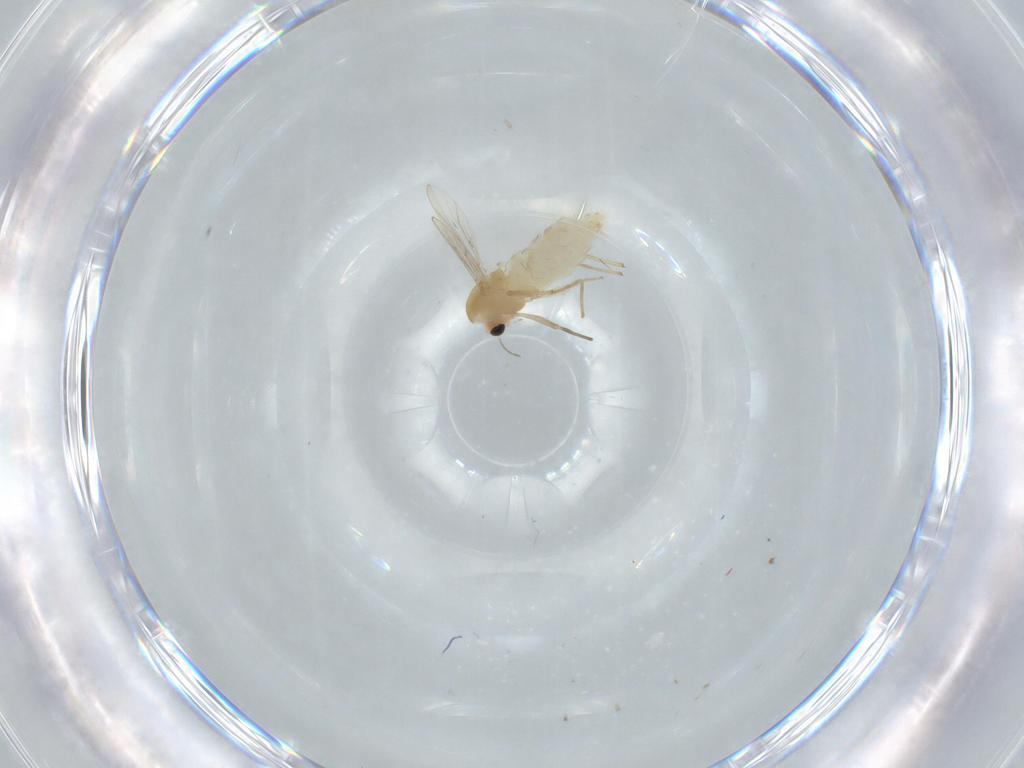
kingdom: Animalia
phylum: Arthropoda
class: Insecta
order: Diptera
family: Chironomidae
